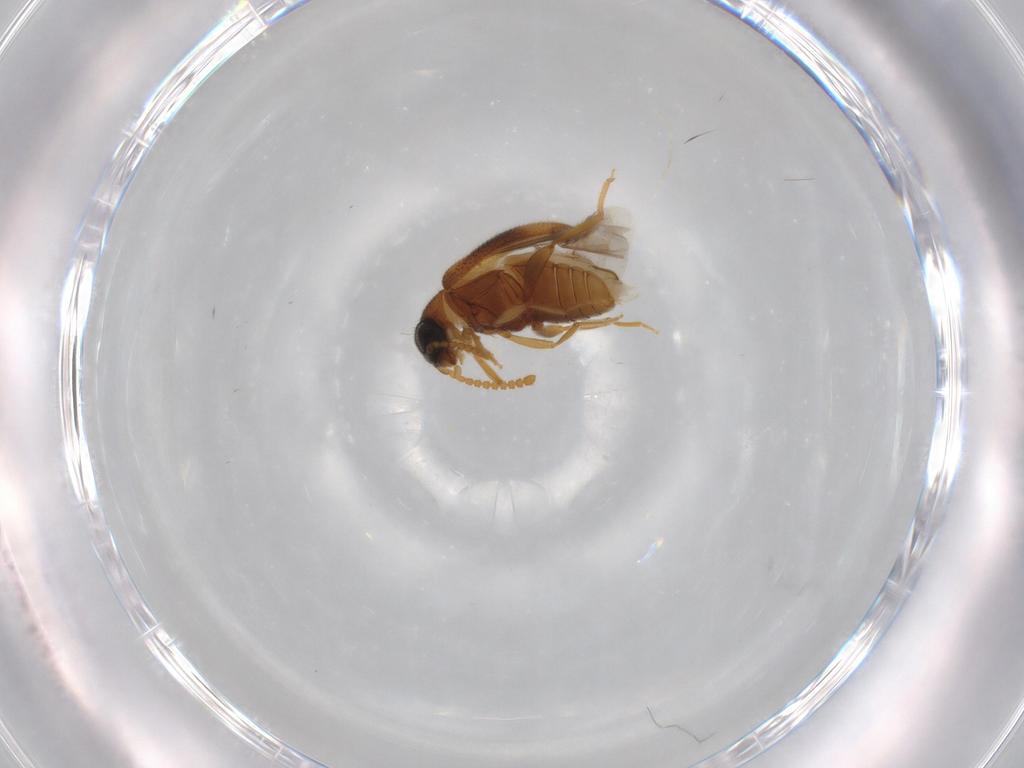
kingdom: Animalia
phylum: Arthropoda
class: Insecta
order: Coleoptera
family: Aderidae
